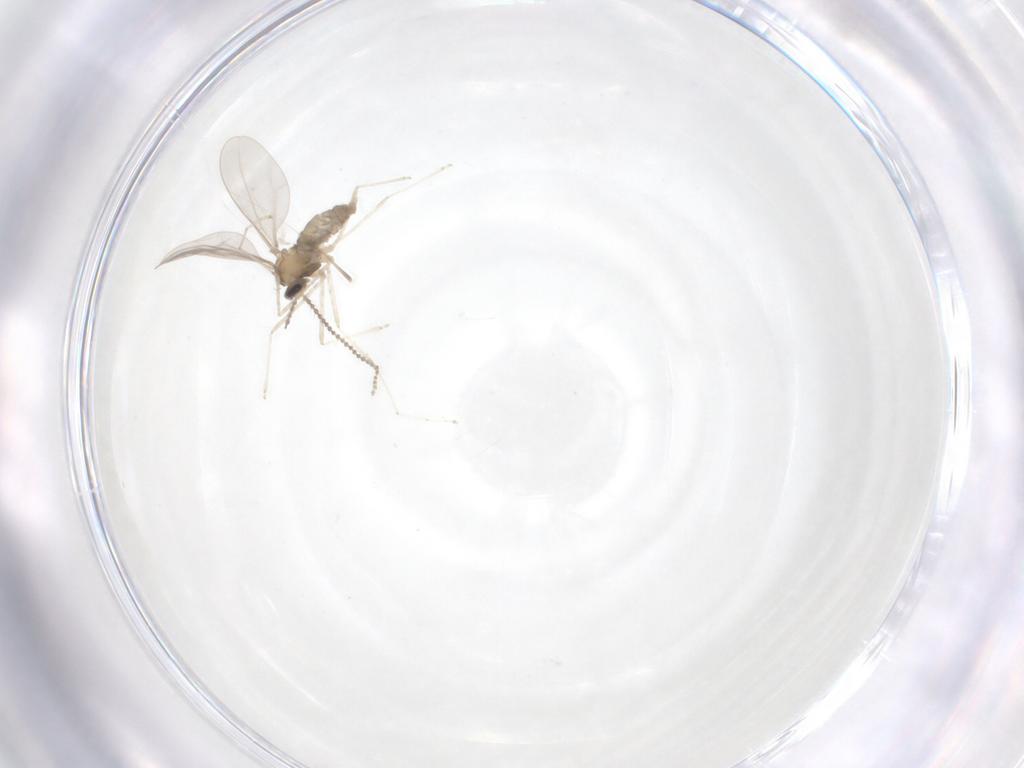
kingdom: Animalia
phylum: Arthropoda
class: Insecta
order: Diptera
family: Cecidomyiidae
